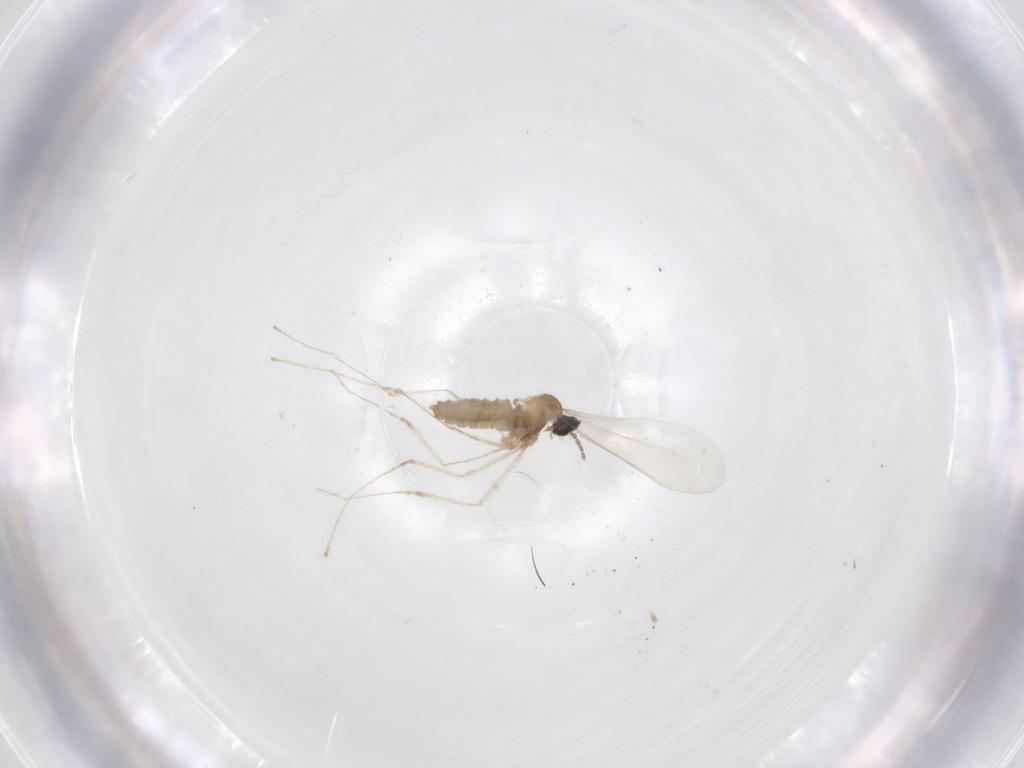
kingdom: Animalia
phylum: Arthropoda
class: Insecta
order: Diptera
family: Cecidomyiidae
